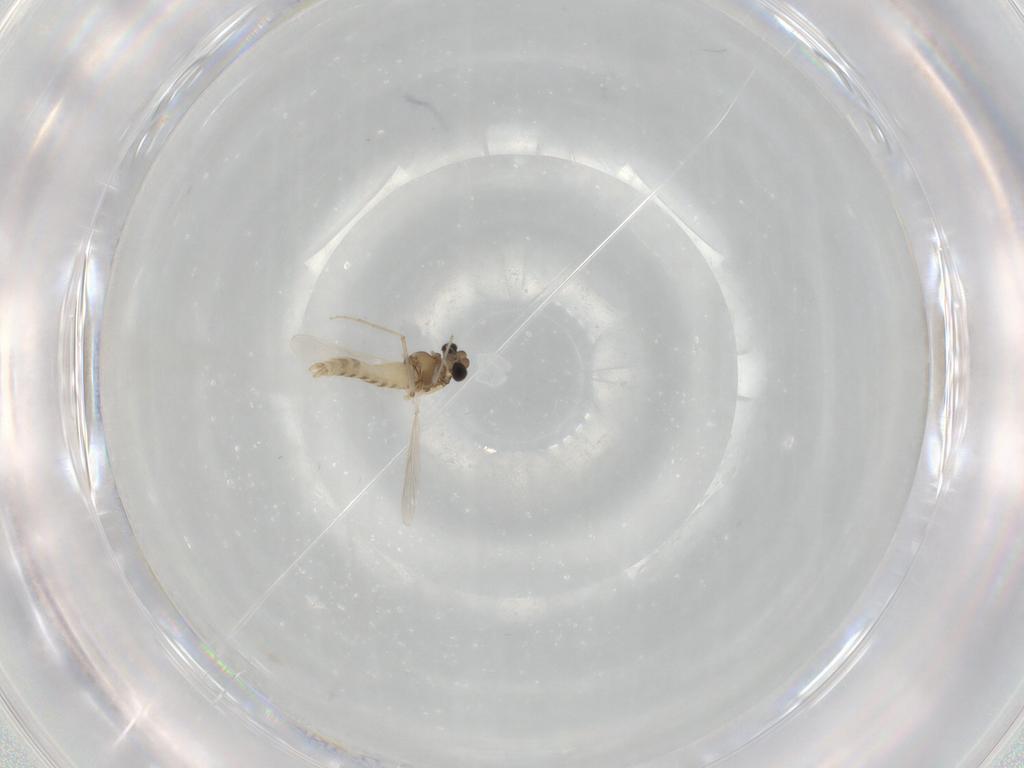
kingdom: Animalia
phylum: Arthropoda
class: Insecta
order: Diptera
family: Chironomidae
